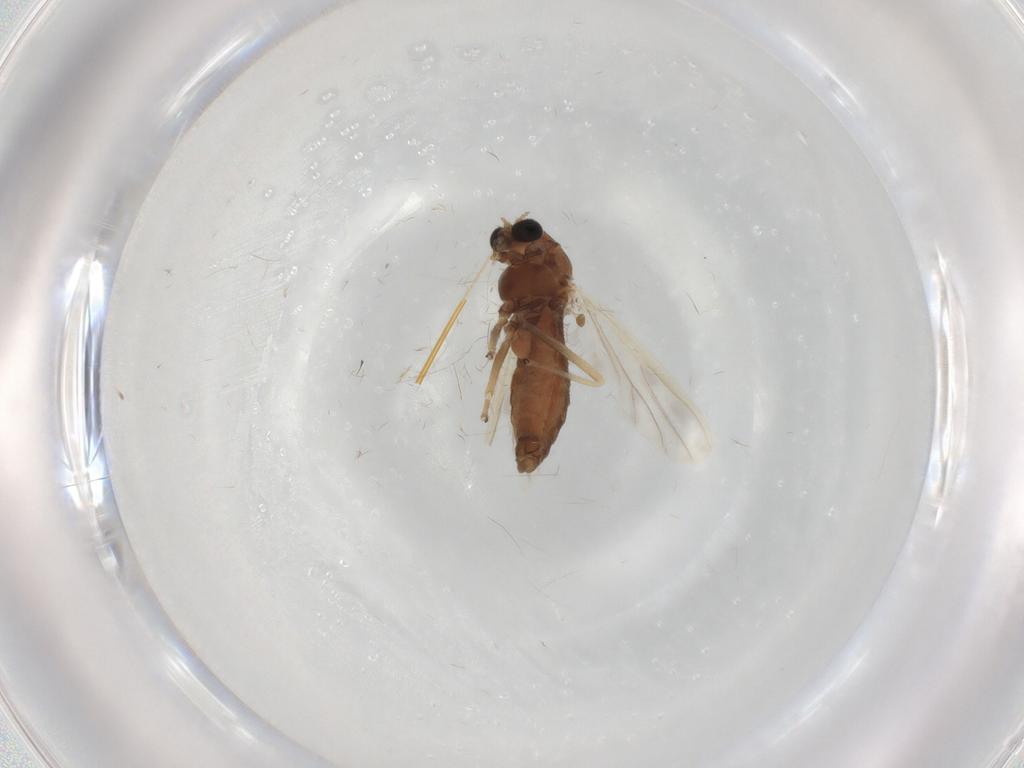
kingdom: Animalia
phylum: Arthropoda
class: Insecta
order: Diptera
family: Chironomidae
